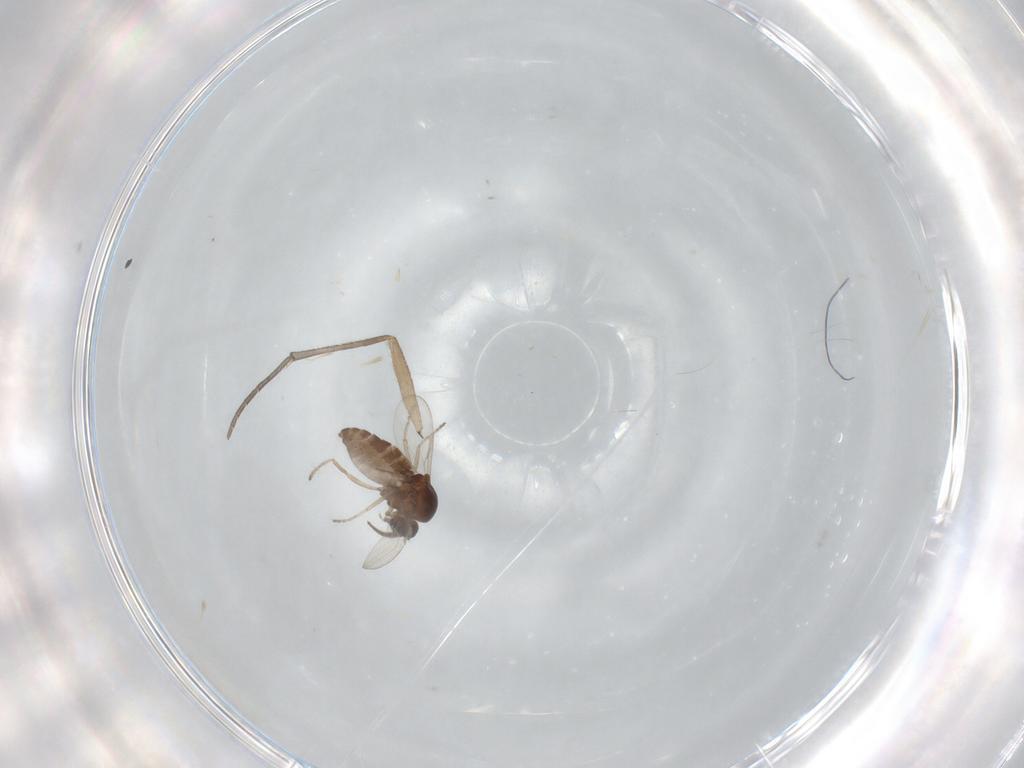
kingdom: Animalia
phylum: Arthropoda
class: Insecta
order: Diptera
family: Ceratopogonidae
